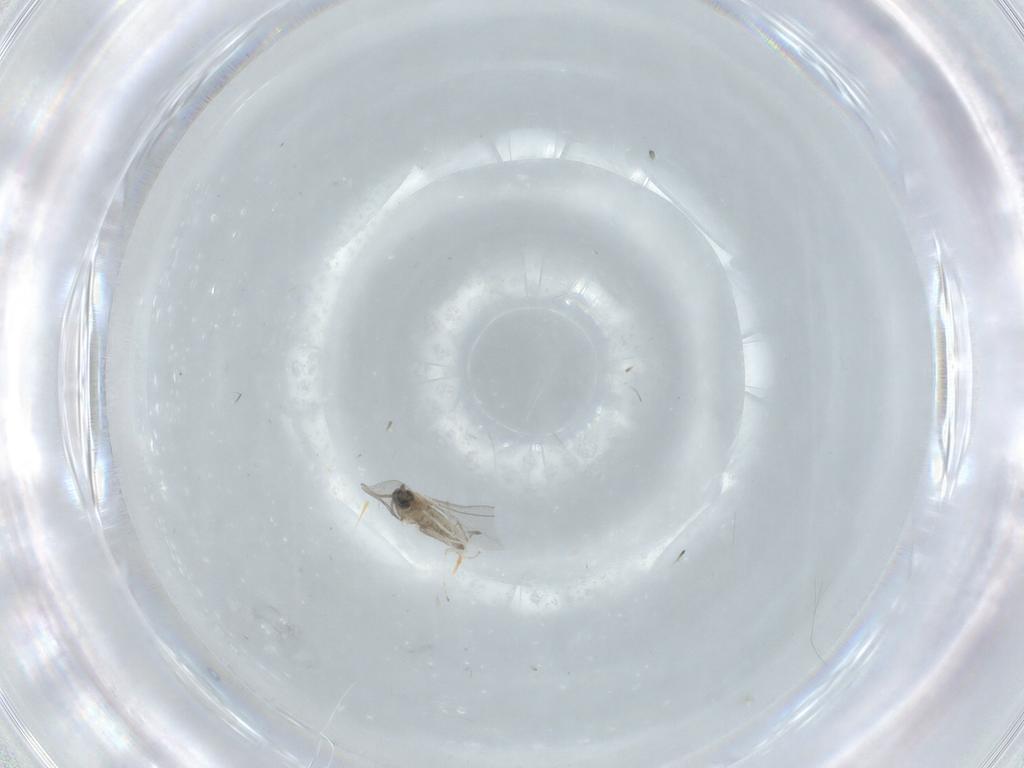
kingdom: Animalia
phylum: Arthropoda
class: Insecta
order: Diptera
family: Cecidomyiidae
